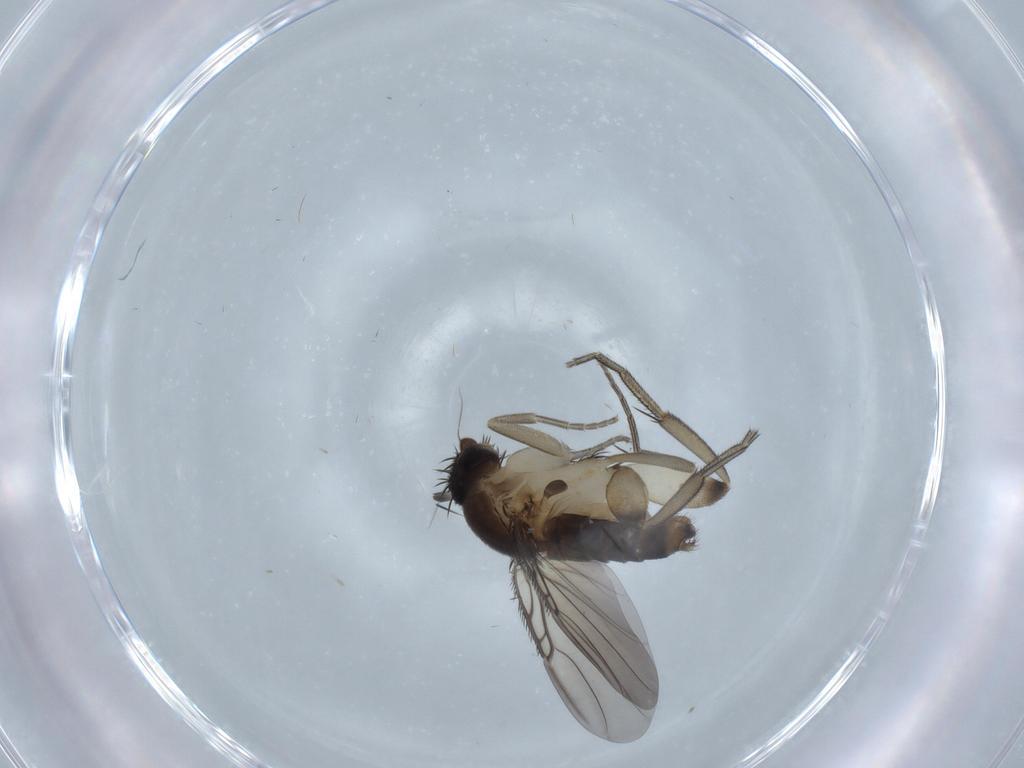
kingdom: Animalia
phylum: Arthropoda
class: Insecta
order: Diptera
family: Phoridae
